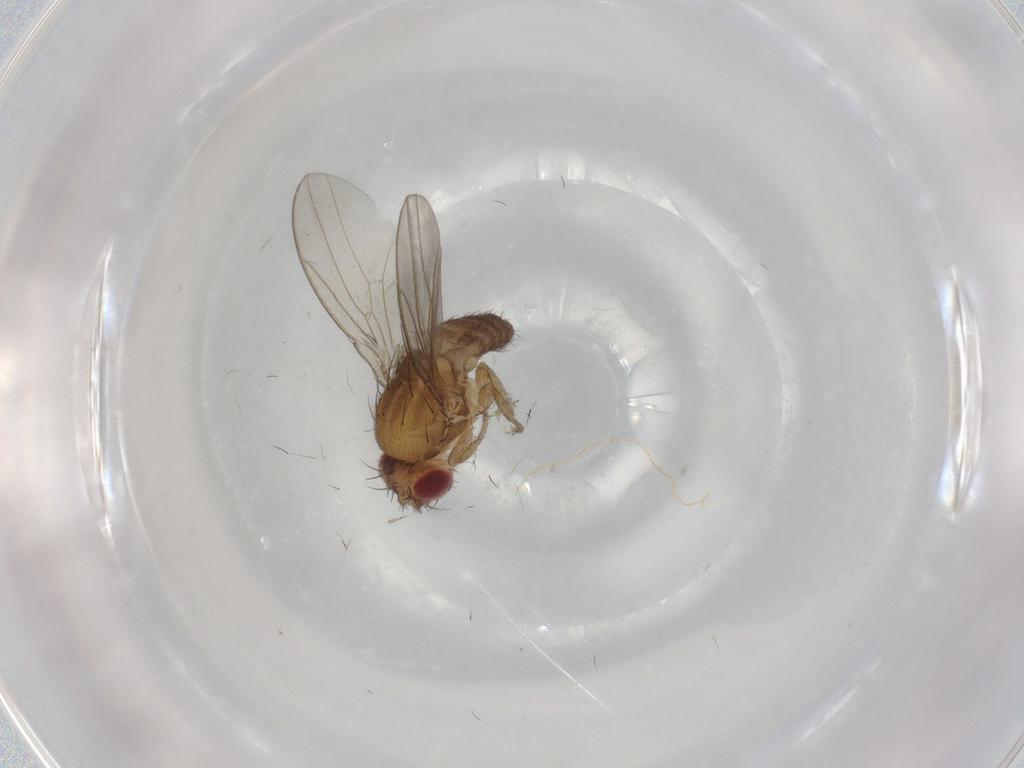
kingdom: Animalia
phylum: Arthropoda
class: Insecta
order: Diptera
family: Drosophilidae
